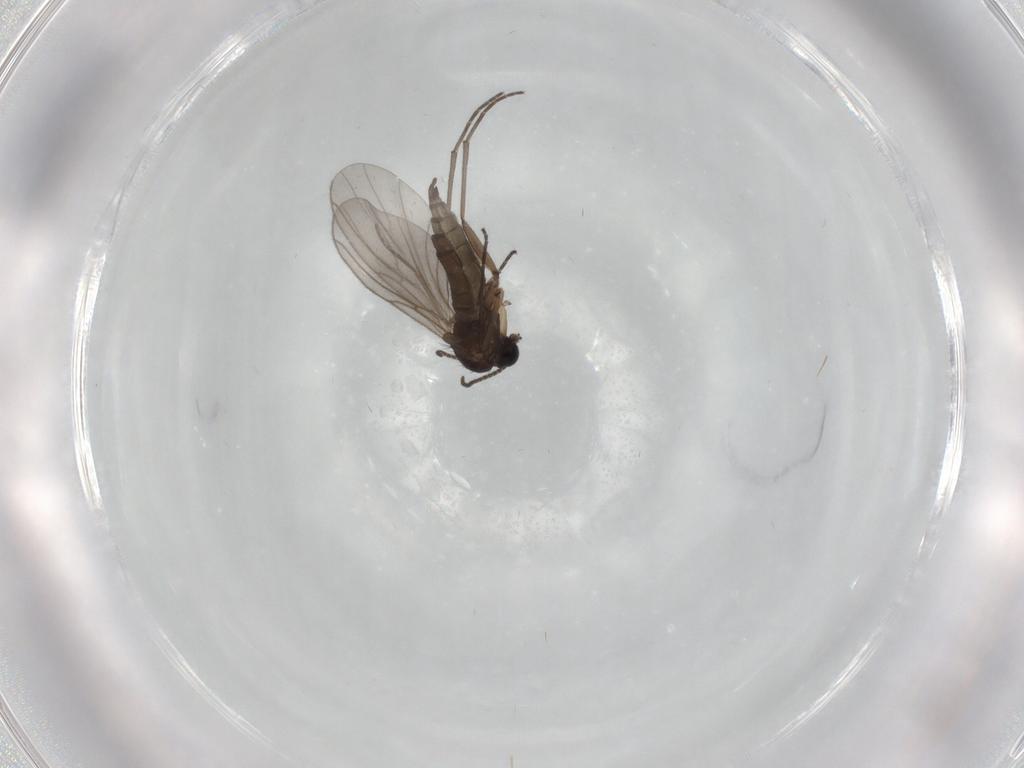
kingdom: Animalia
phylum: Arthropoda
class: Insecta
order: Diptera
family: Sciaridae
